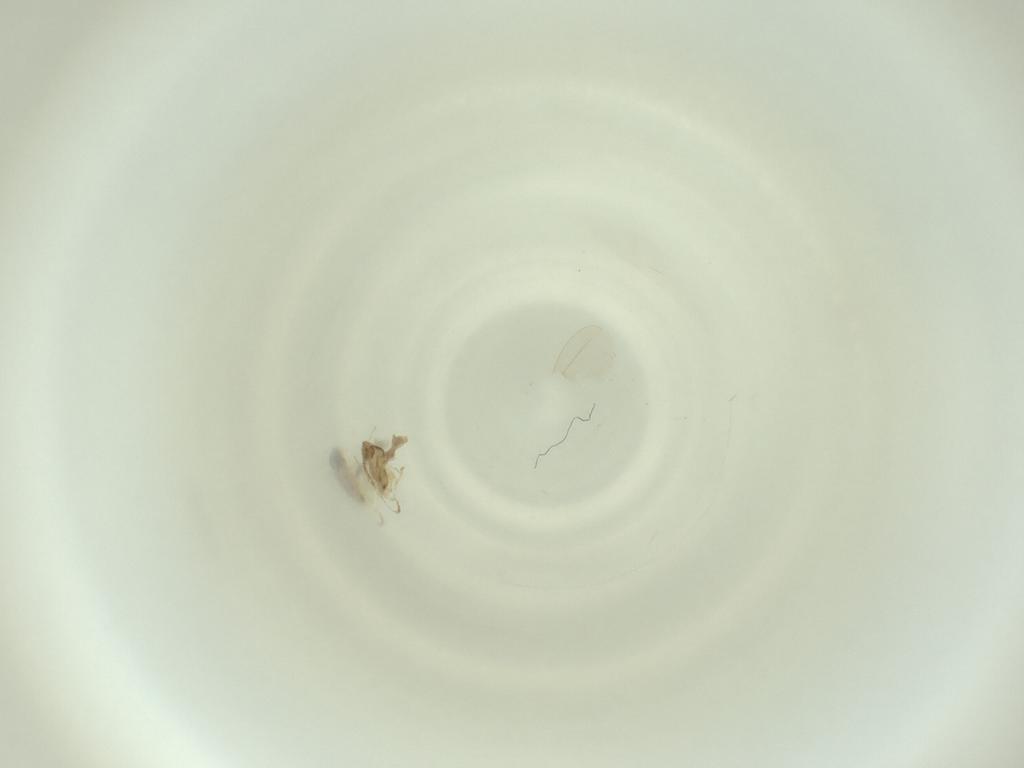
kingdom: Animalia
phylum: Arthropoda
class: Insecta
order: Diptera
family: Cecidomyiidae
